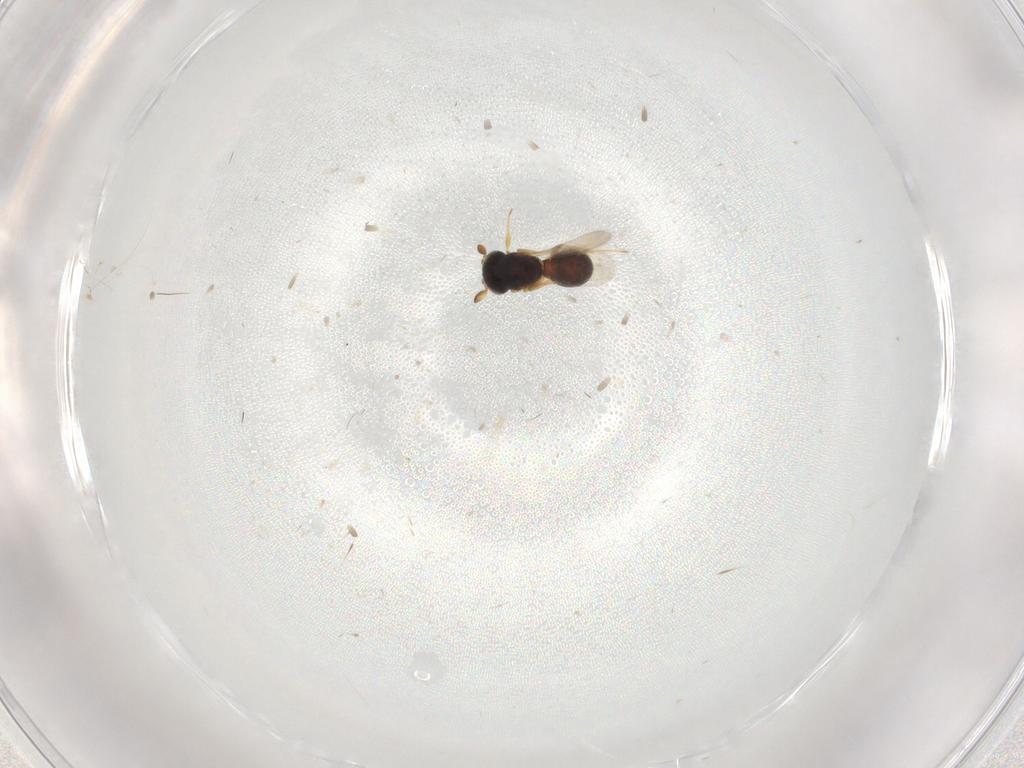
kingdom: Animalia
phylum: Arthropoda
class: Insecta
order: Hymenoptera
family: Scelionidae
